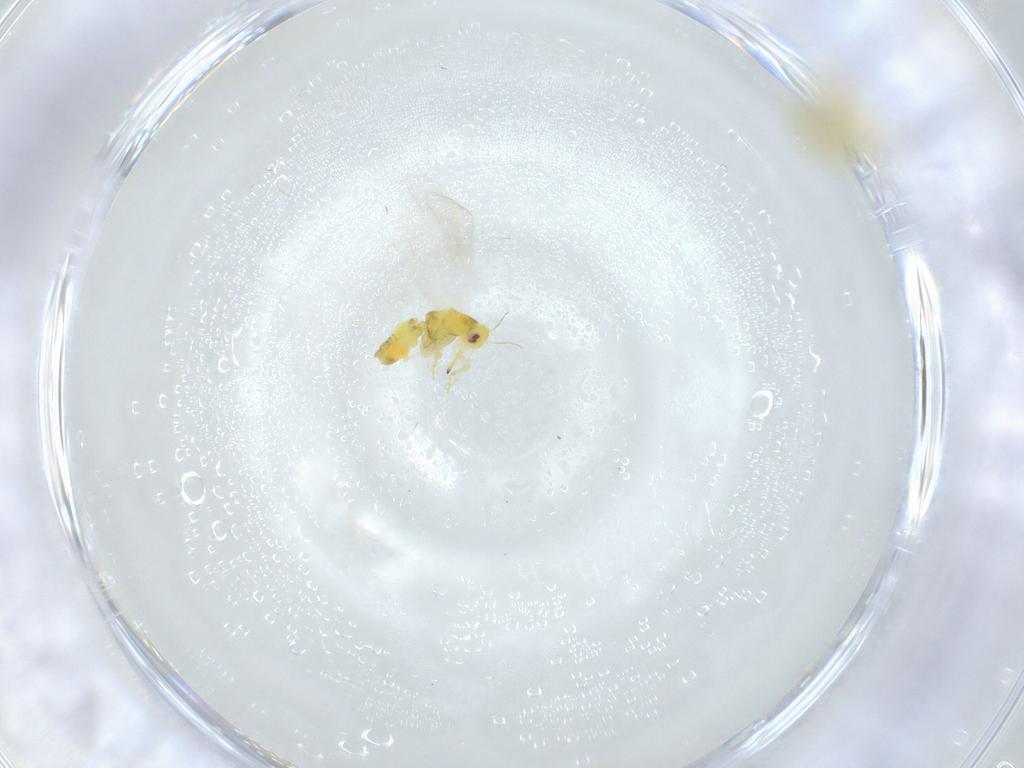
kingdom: Animalia
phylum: Arthropoda
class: Insecta
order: Hemiptera
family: Aleyrodidae
